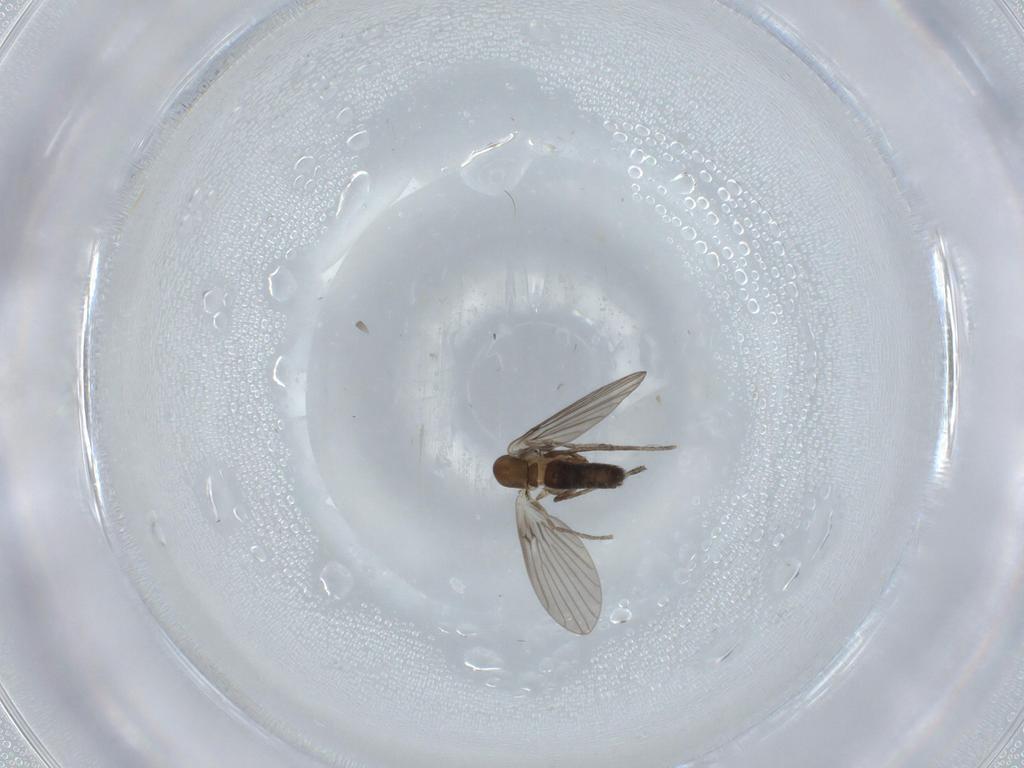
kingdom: Animalia
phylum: Arthropoda
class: Insecta
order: Diptera
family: Psychodidae
